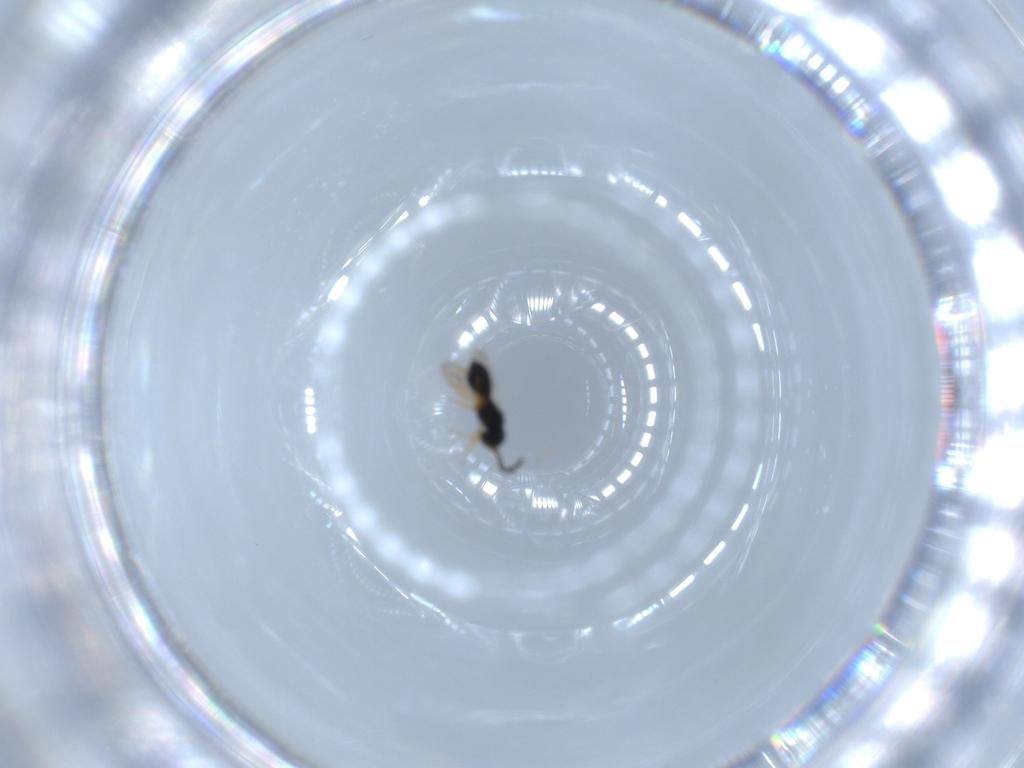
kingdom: Animalia
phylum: Arthropoda
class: Insecta
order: Hymenoptera
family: Scelionidae
